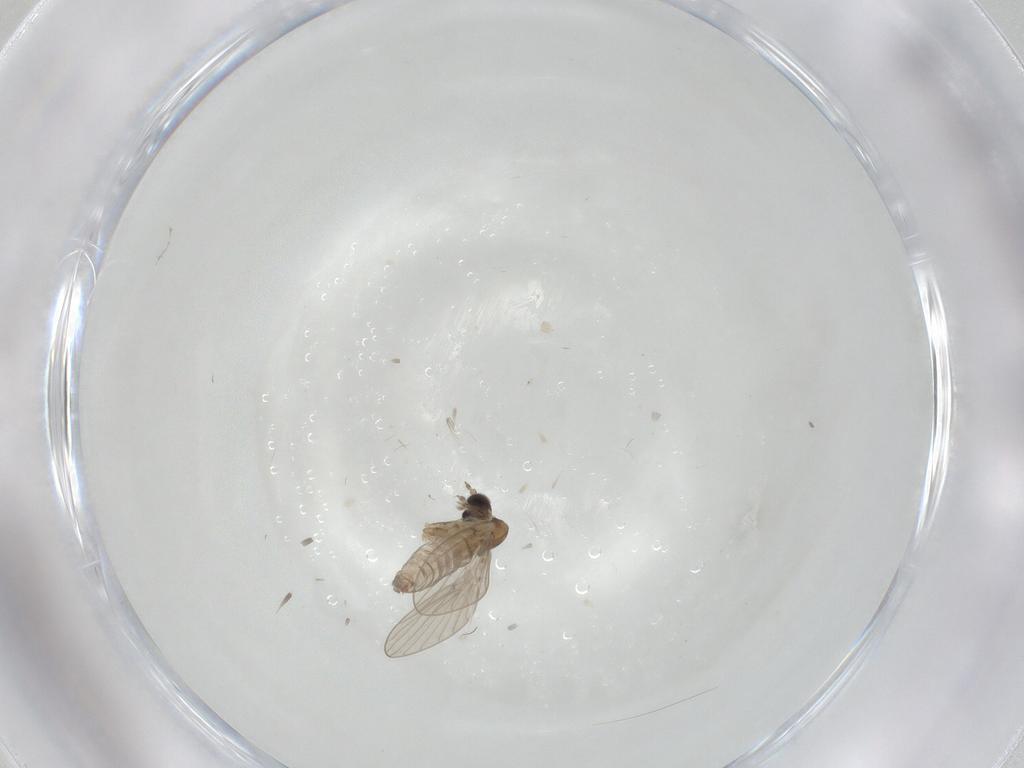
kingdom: Animalia
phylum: Arthropoda
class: Insecta
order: Diptera
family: Psychodidae
